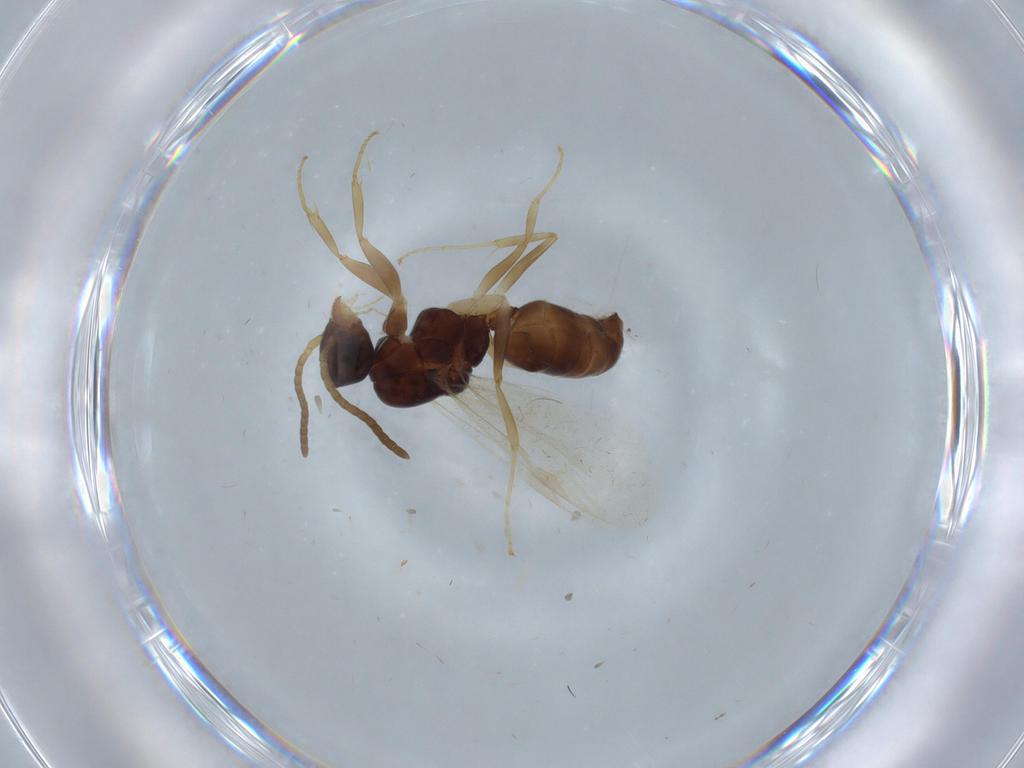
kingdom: Animalia
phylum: Arthropoda
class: Insecta
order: Hymenoptera
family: Formicidae
